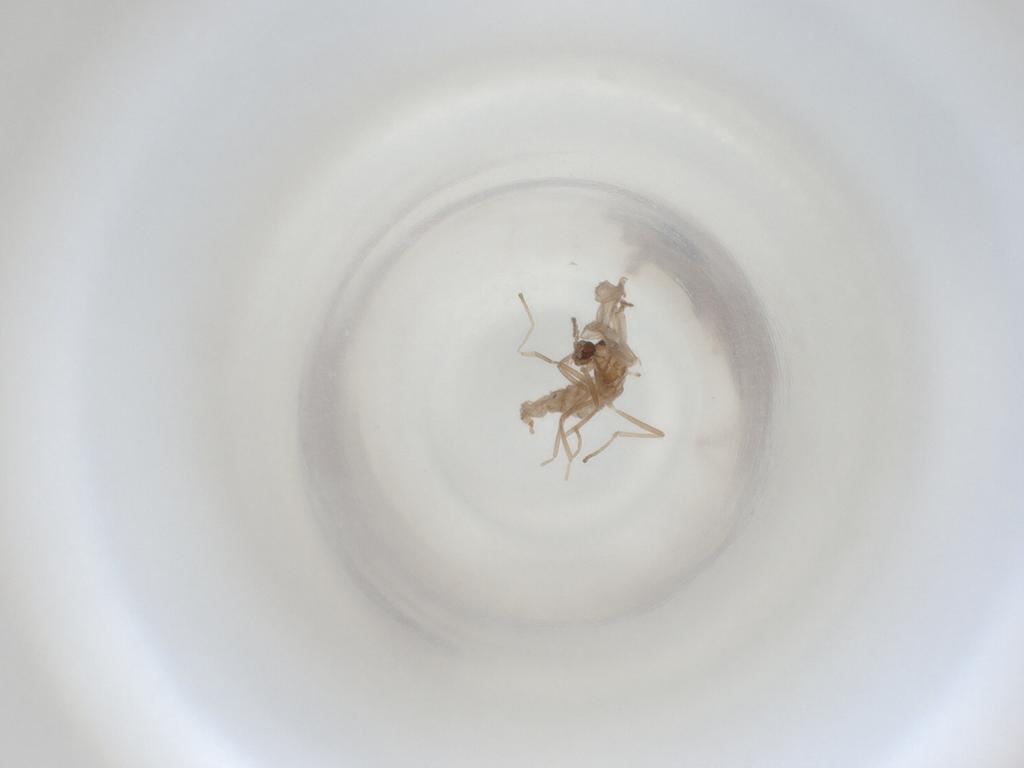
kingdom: Animalia
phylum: Arthropoda
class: Insecta
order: Diptera
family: Cecidomyiidae
